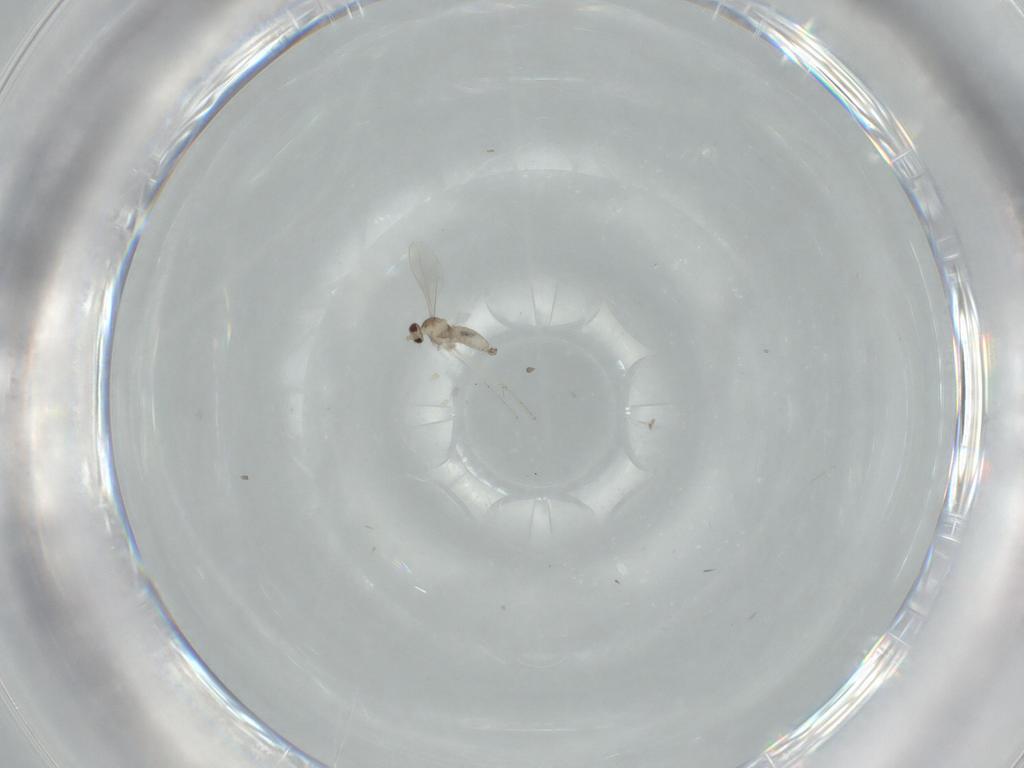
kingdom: Animalia
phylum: Arthropoda
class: Insecta
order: Diptera
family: Cecidomyiidae
